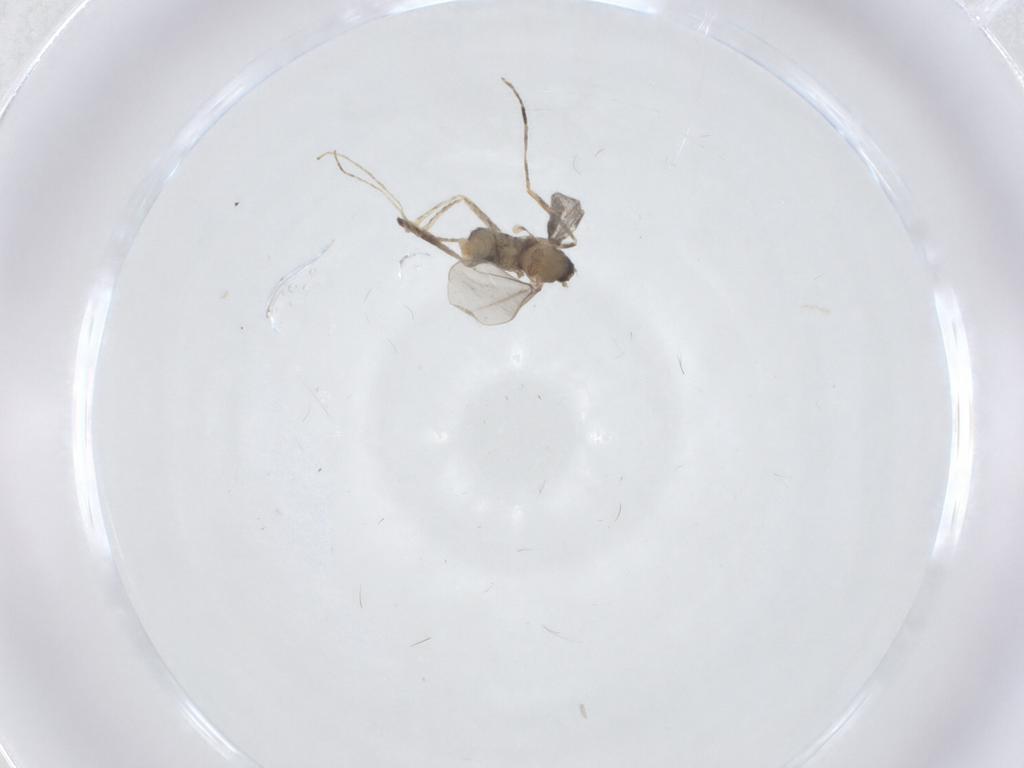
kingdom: Animalia
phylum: Arthropoda
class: Insecta
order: Diptera
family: Cecidomyiidae
